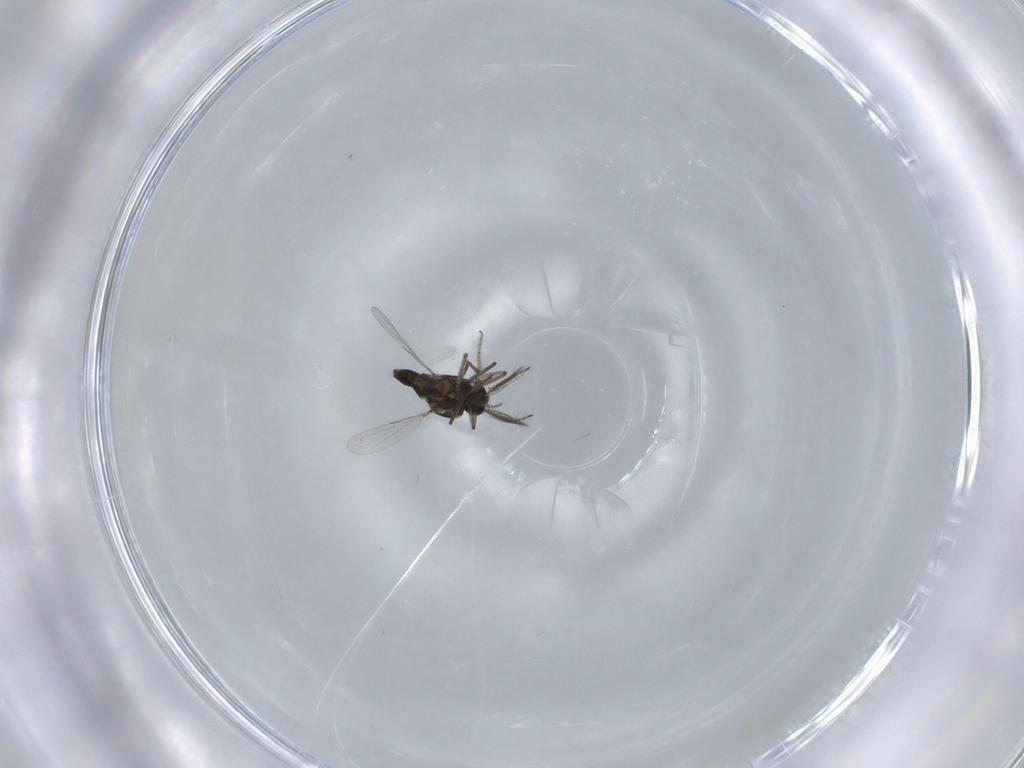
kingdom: Animalia
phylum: Arthropoda
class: Insecta
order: Diptera
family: Ceratopogonidae
